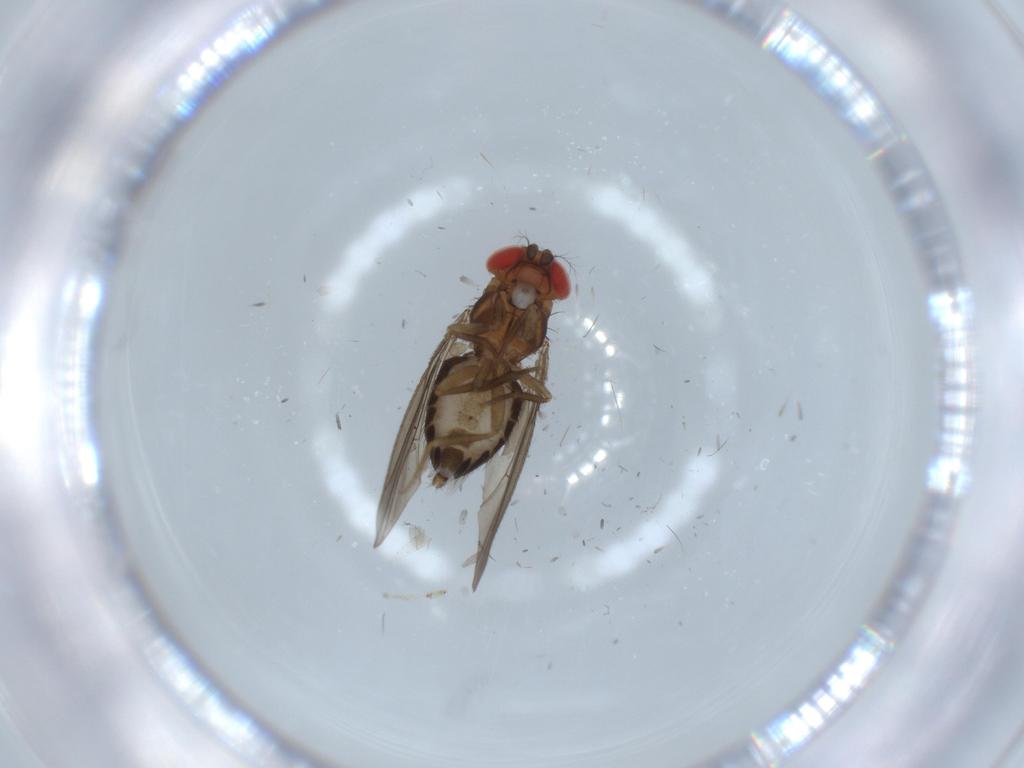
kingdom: Animalia
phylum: Arthropoda
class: Insecta
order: Diptera
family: Drosophilidae
